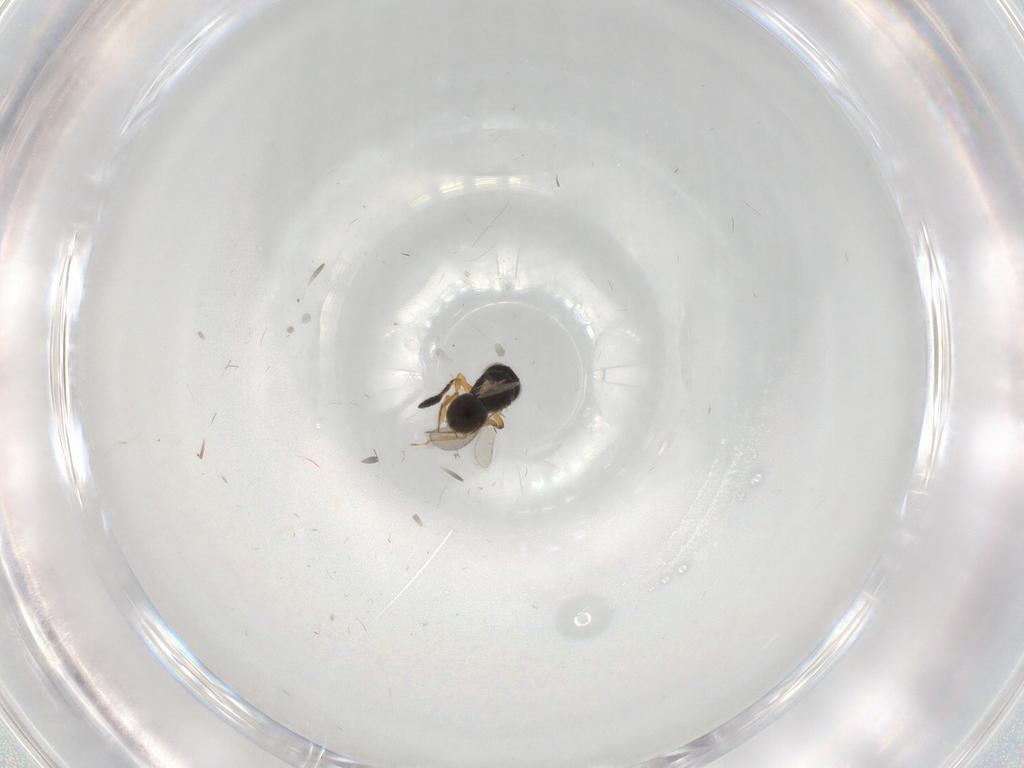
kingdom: Animalia
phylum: Arthropoda
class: Insecta
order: Hymenoptera
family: Scelionidae
